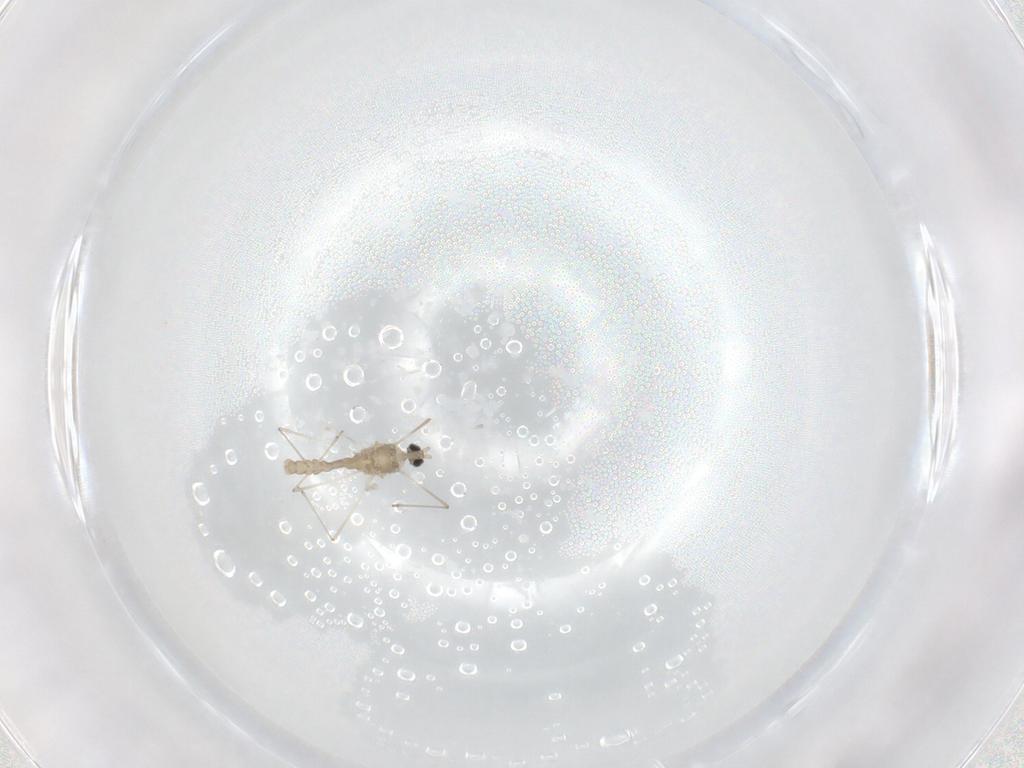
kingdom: Animalia
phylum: Arthropoda
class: Insecta
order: Diptera
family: Cecidomyiidae
